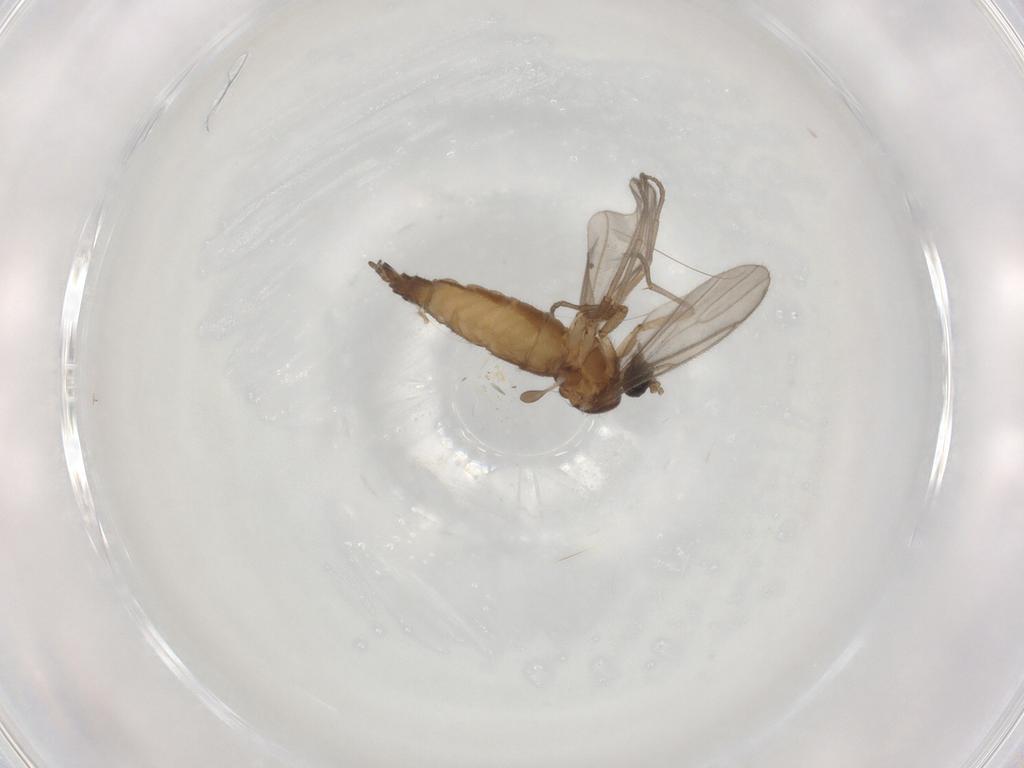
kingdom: Animalia
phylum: Arthropoda
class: Insecta
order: Diptera
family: Sciaridae
